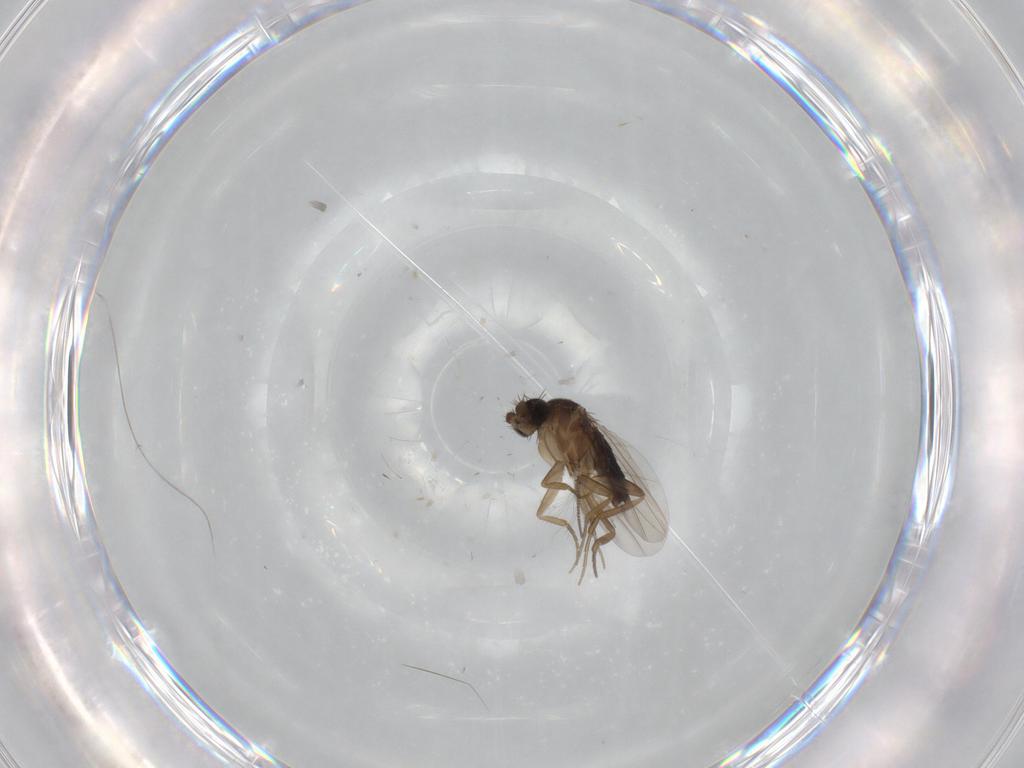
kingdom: Animalia
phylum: Arthropoda
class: Insecta
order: Diptera
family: Phoridae
